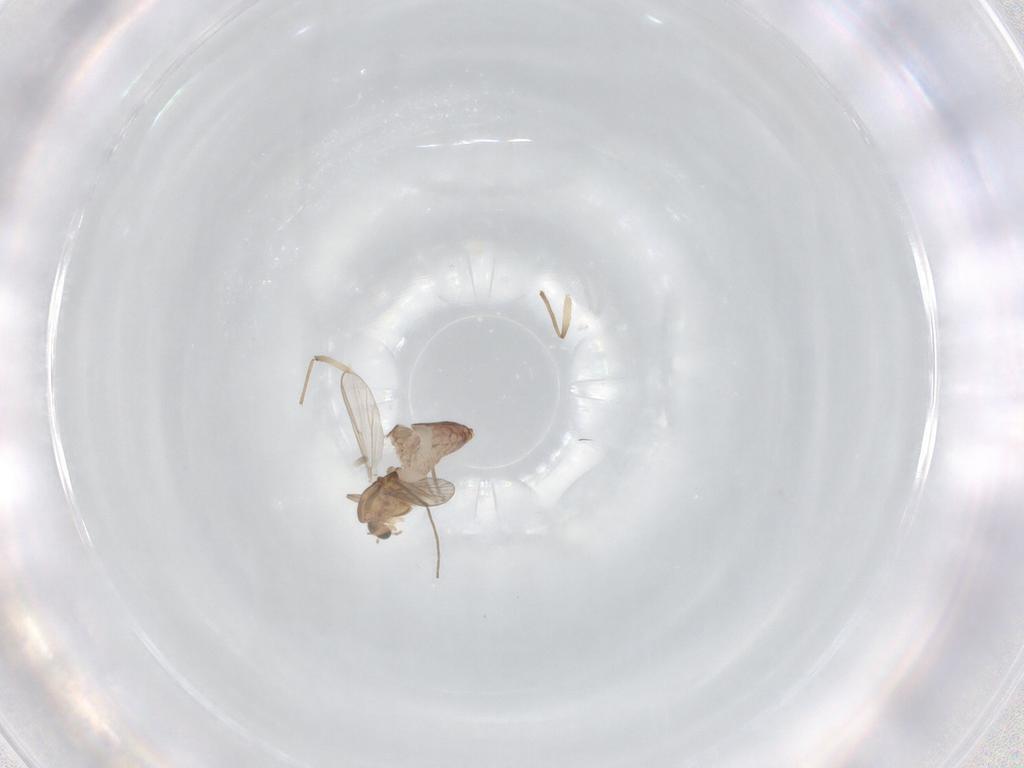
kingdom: Animalia
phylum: Arthropoda
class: Insecta
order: Diptera
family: Chironomidae
